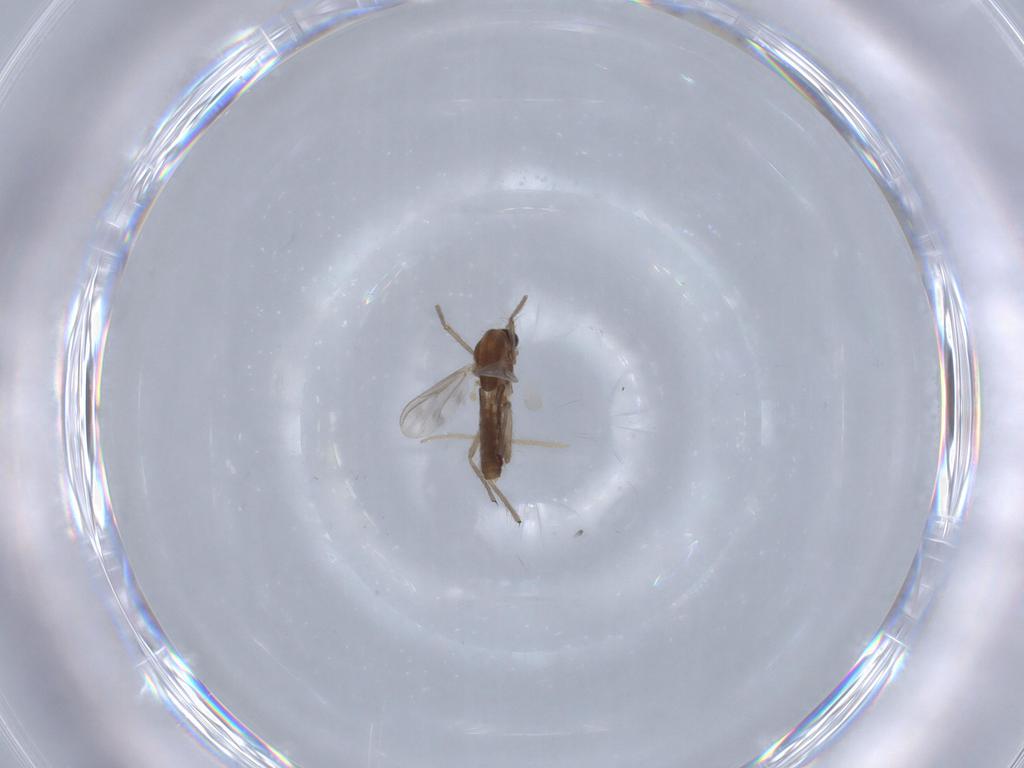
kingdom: Animalia
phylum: Arthropoda
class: Insecta
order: Diptera
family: Chironomidae
